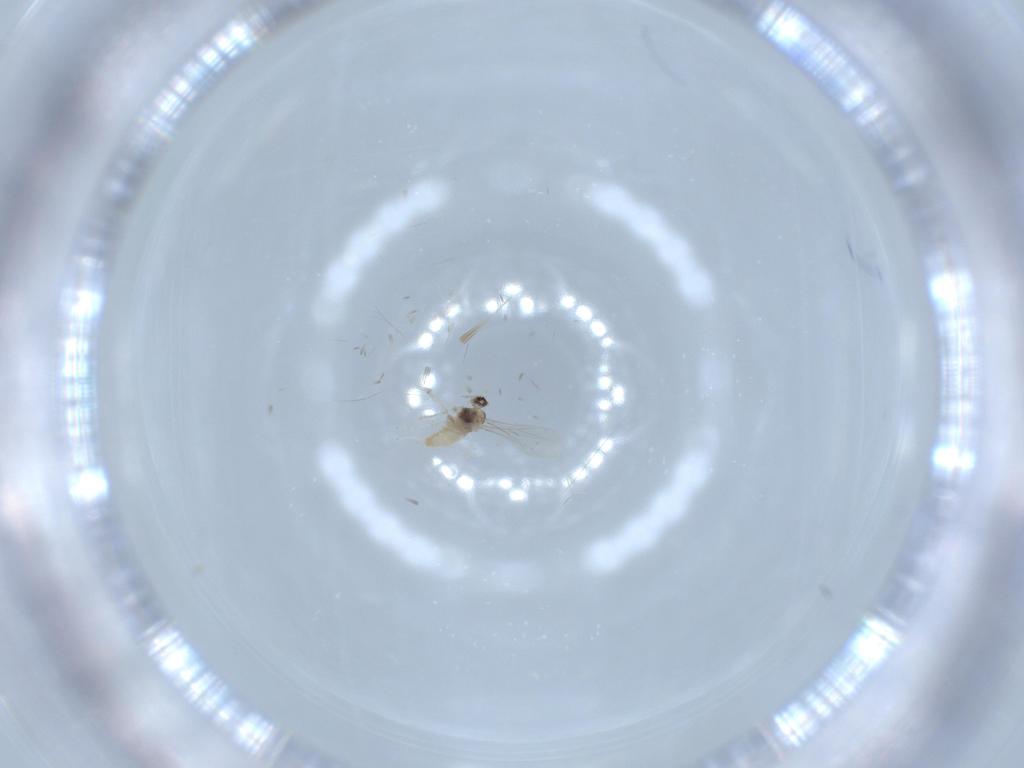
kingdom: Animalia
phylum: Arthropoda
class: Insecta
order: Diptera
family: Cecidomyiidae
